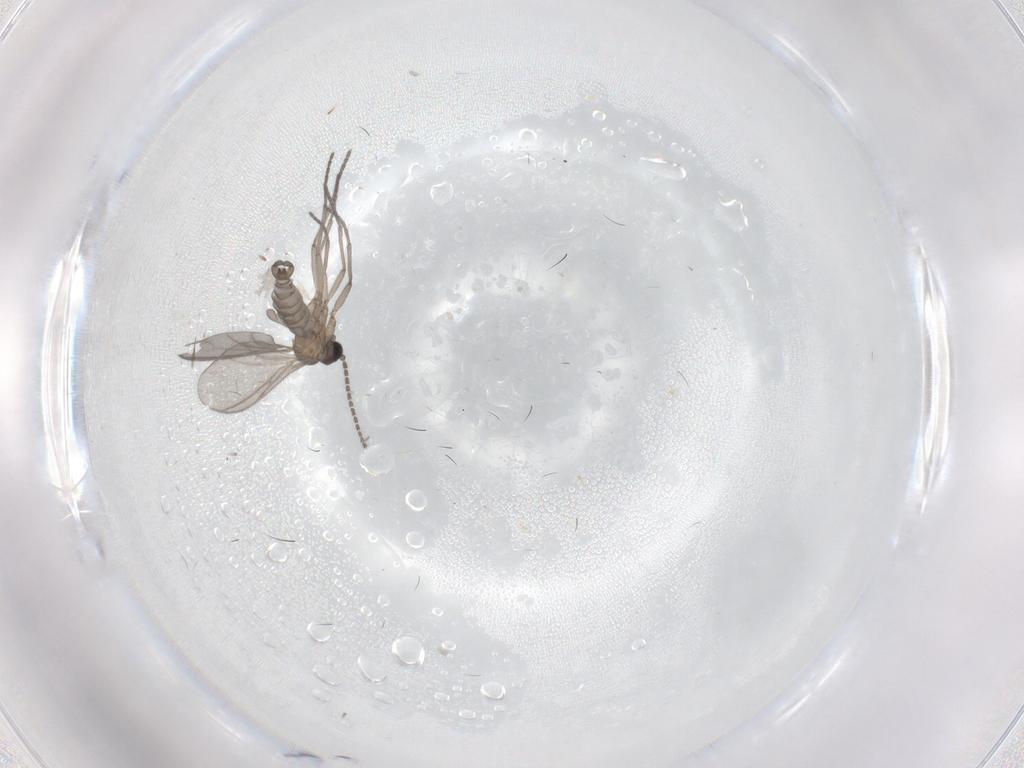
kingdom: Animalia
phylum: Arthropoda
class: Insecta
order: Diptera
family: Sciaridae
